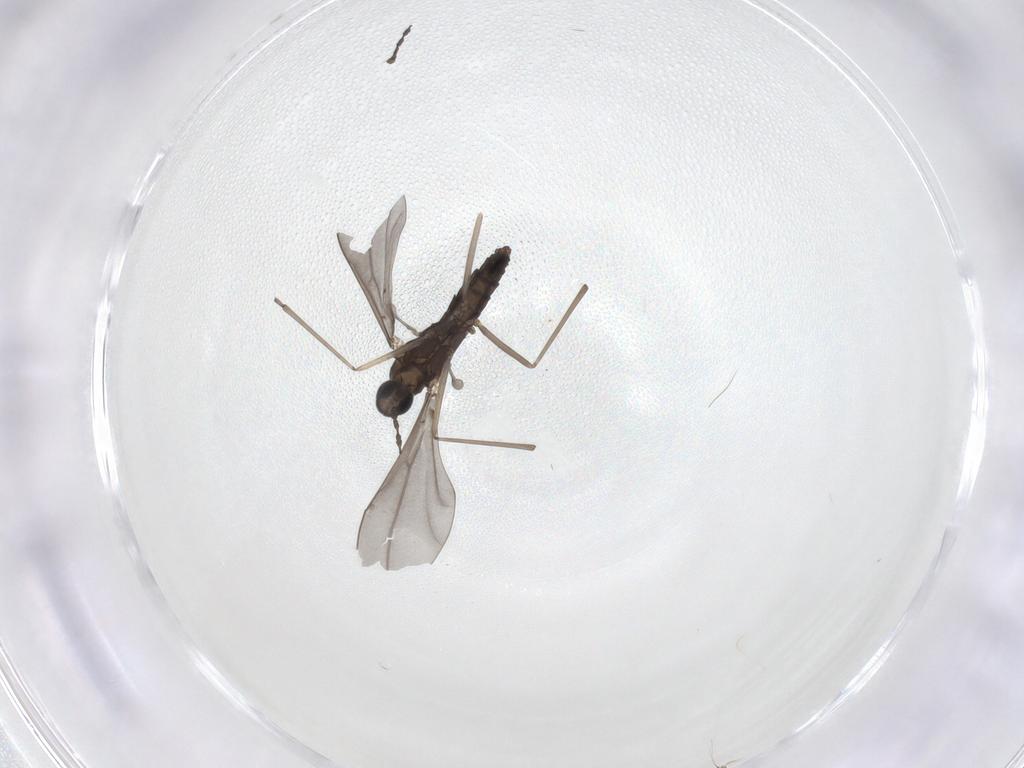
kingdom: Animalia
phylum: Arthropoda
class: Insecta
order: Diptera
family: Cecidomyiidae
